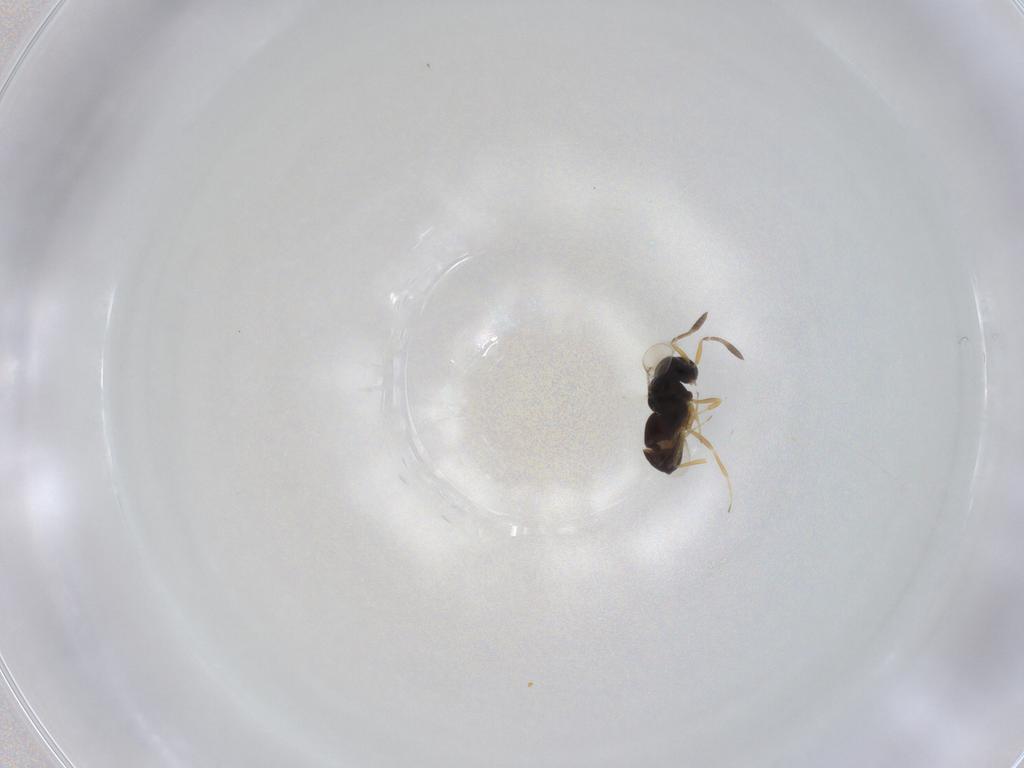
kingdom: Animalia
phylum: Arthropoda
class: Insecta
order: Hymenoptera
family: Scelionidae
